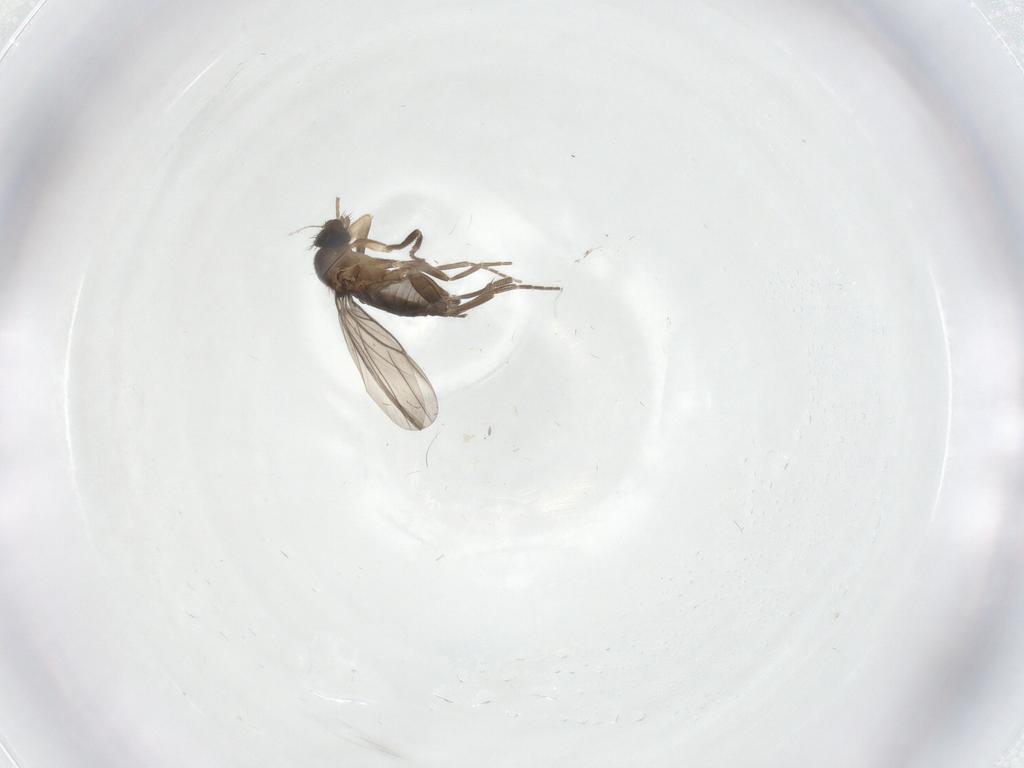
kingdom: Animalia
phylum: Arthropoda
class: Insecta
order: Diptera
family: Phoridae
